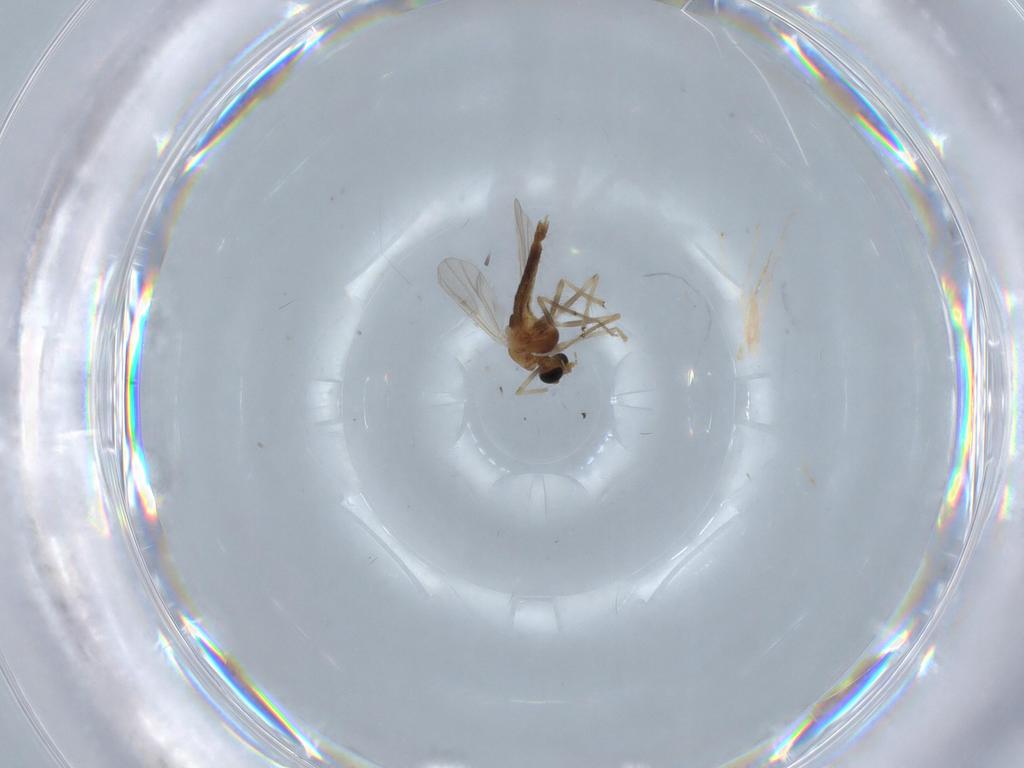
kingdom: Animalia
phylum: Arthropoda
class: Insecta
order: Diptera
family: Chironomidae
